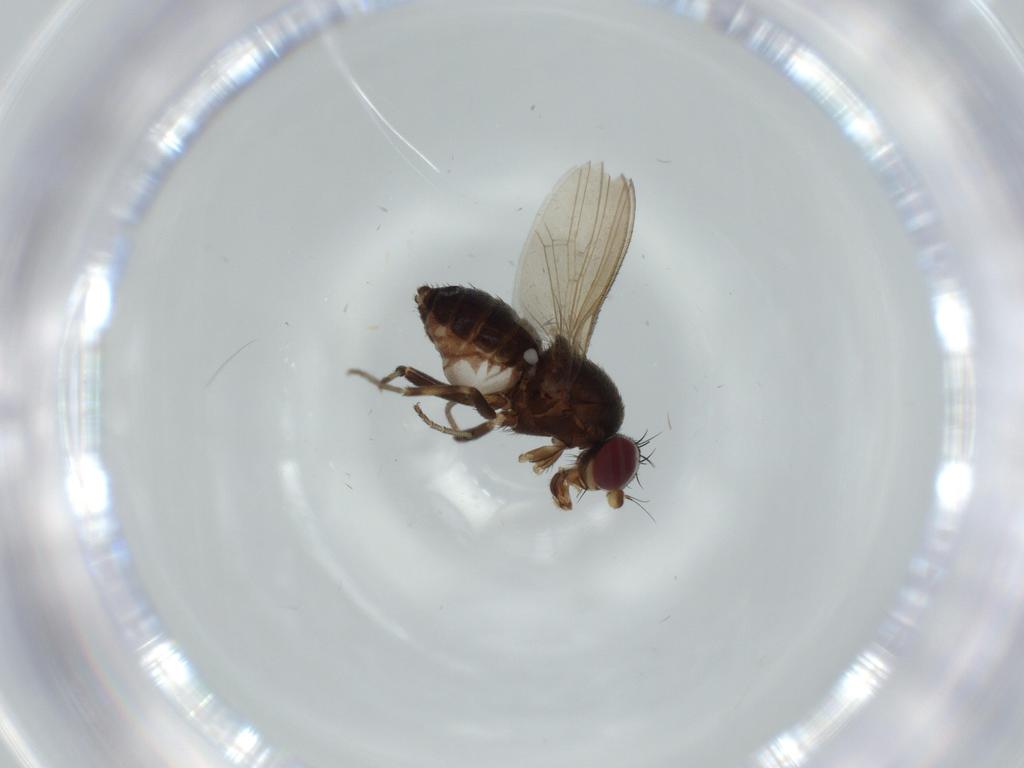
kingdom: Animalia
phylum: Arthropoda
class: Insecta
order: Diptera
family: Heleomyzidae
